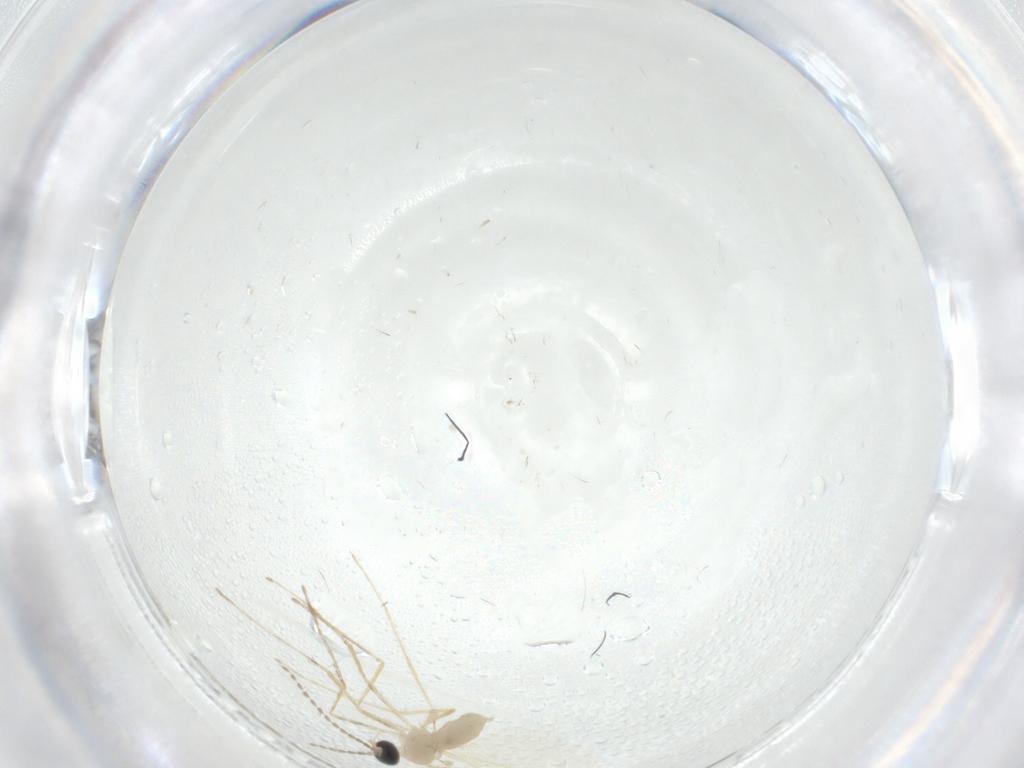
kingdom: Animalia
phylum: Arthropoda
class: Insecta
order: Diptera
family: Cecidomyiidae
